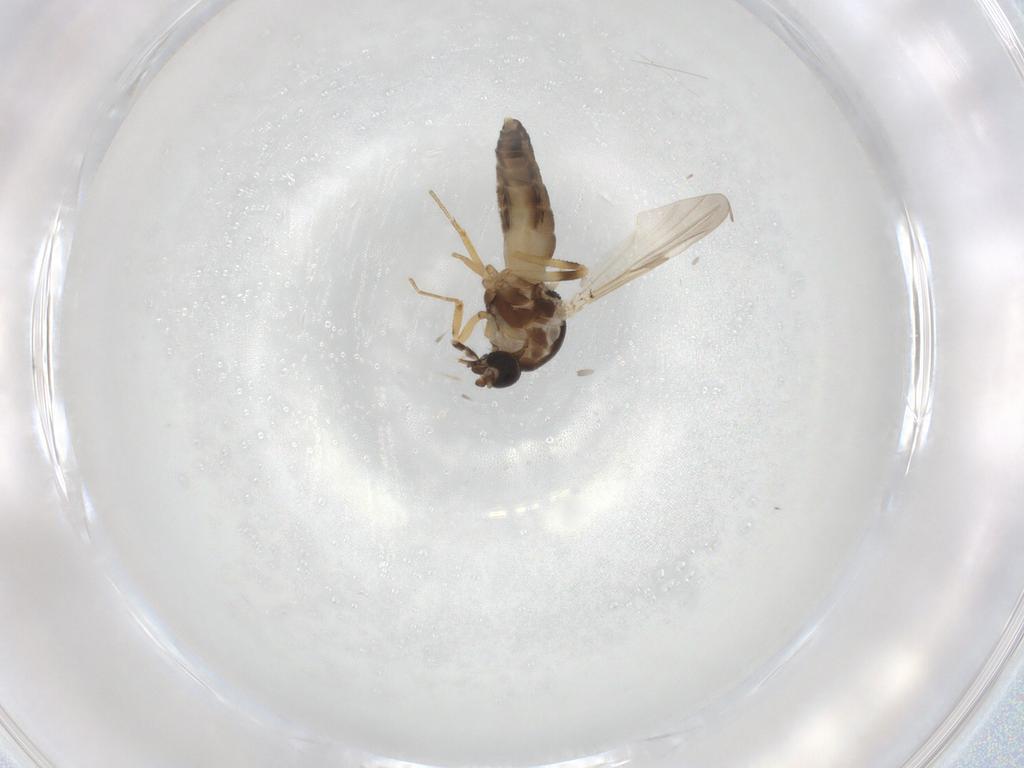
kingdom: Animalia
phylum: Arthropoda
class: Insecta
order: Diptera
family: Ceratopogonidae
